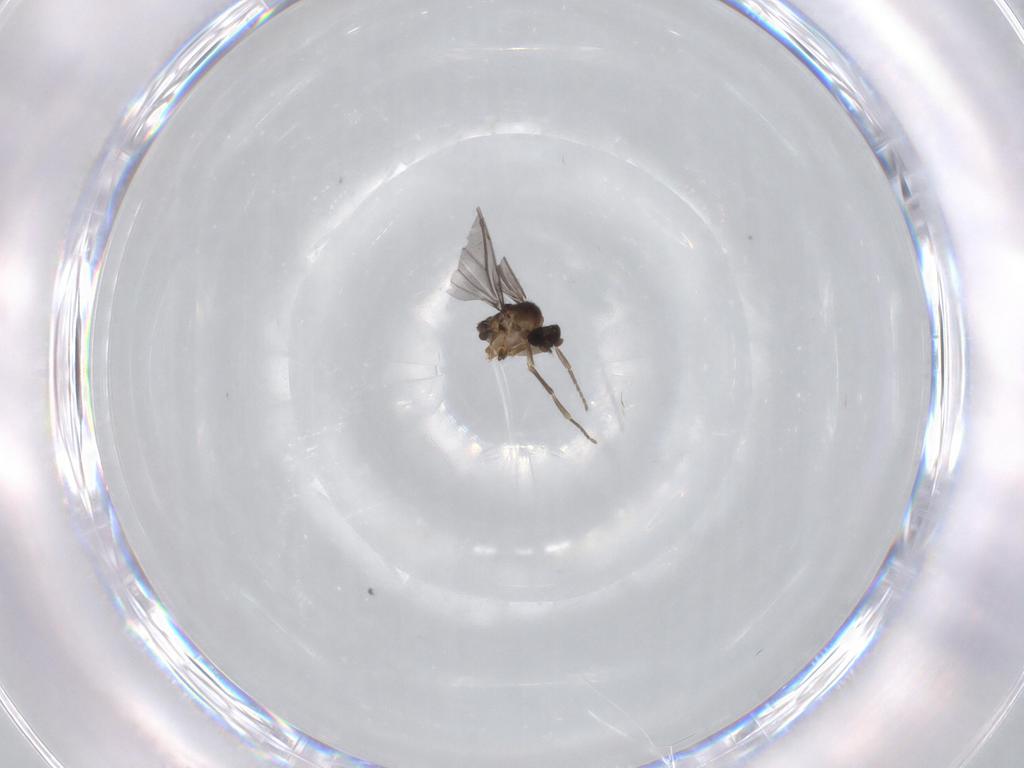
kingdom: Animalia
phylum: Arthropoda
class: Insecta
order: Diptera
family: Phoridae
